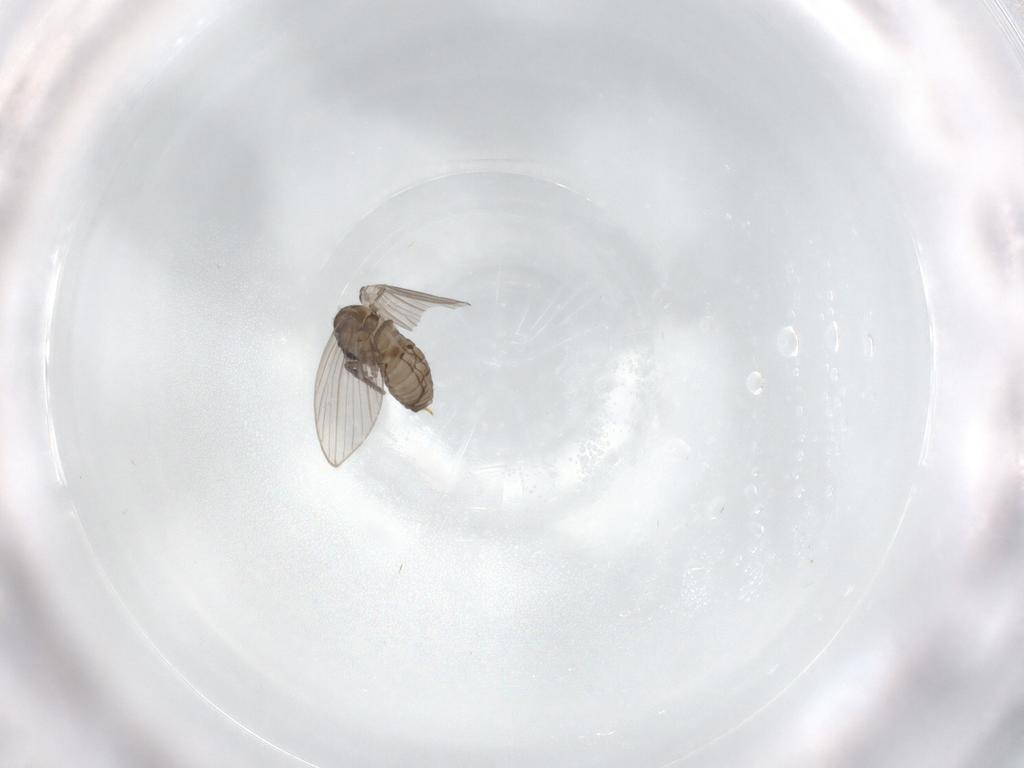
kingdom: Animalia
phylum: Arthropoda
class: Insecta
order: Diptera
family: Psychodidae
